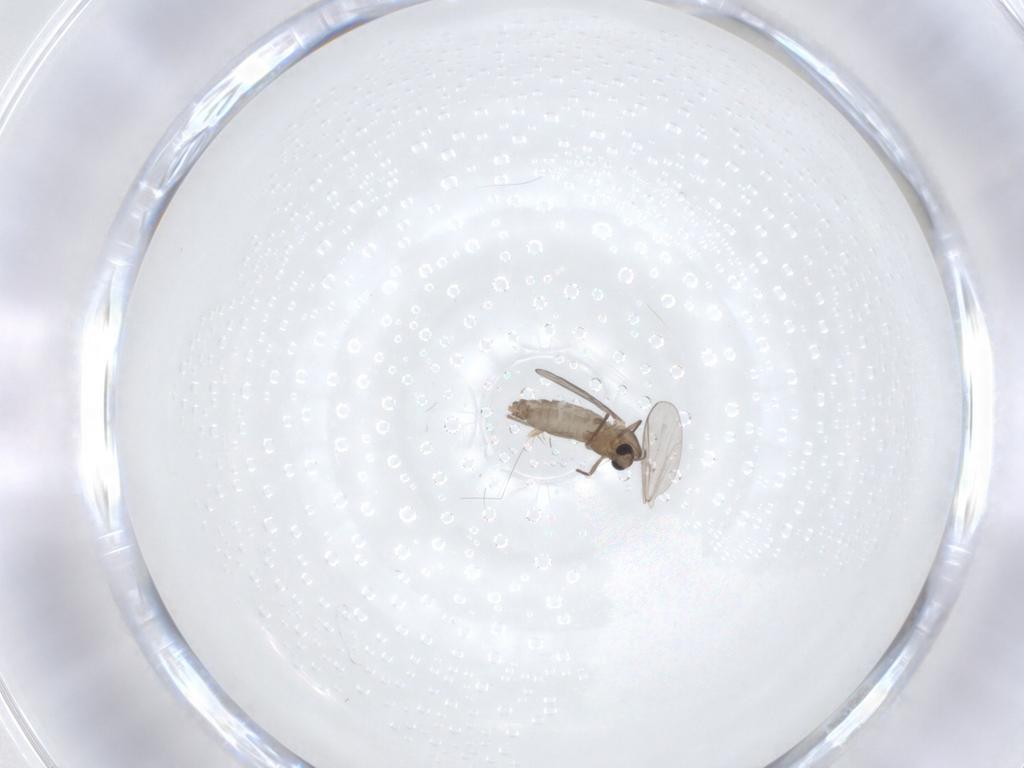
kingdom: Animalia
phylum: Arthropoda
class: Insecta
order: Diptera
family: Chironomidae
